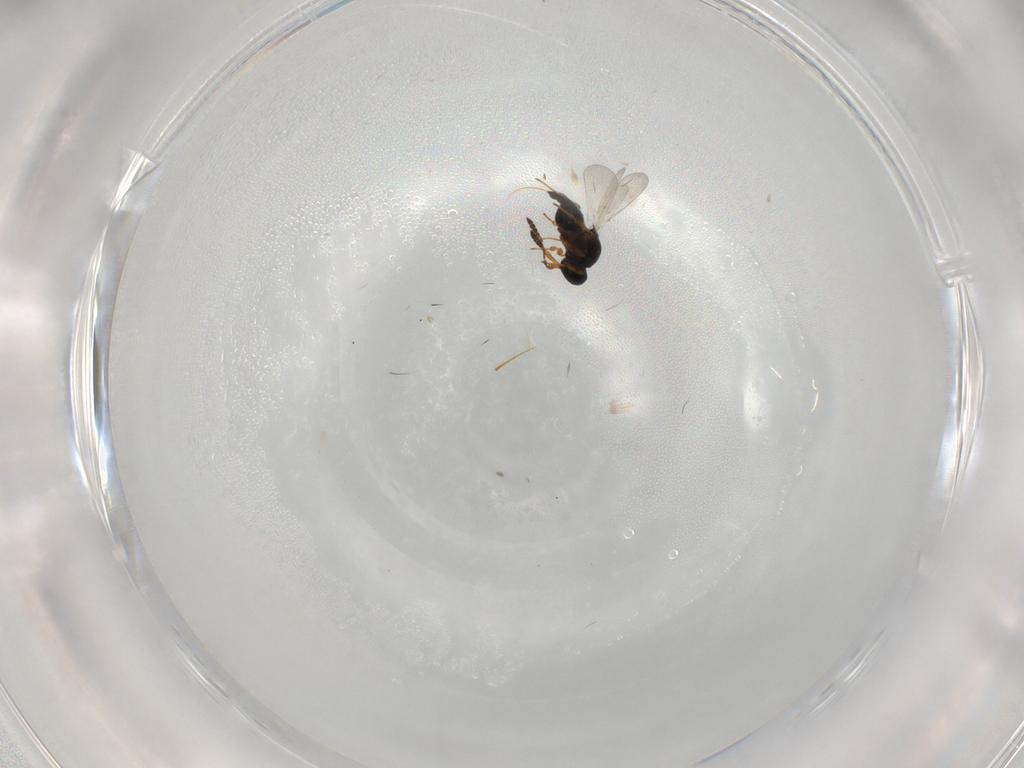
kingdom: Animalia
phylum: Arthropoda
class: Insecta
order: Hymenoptera
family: Platygastridae
